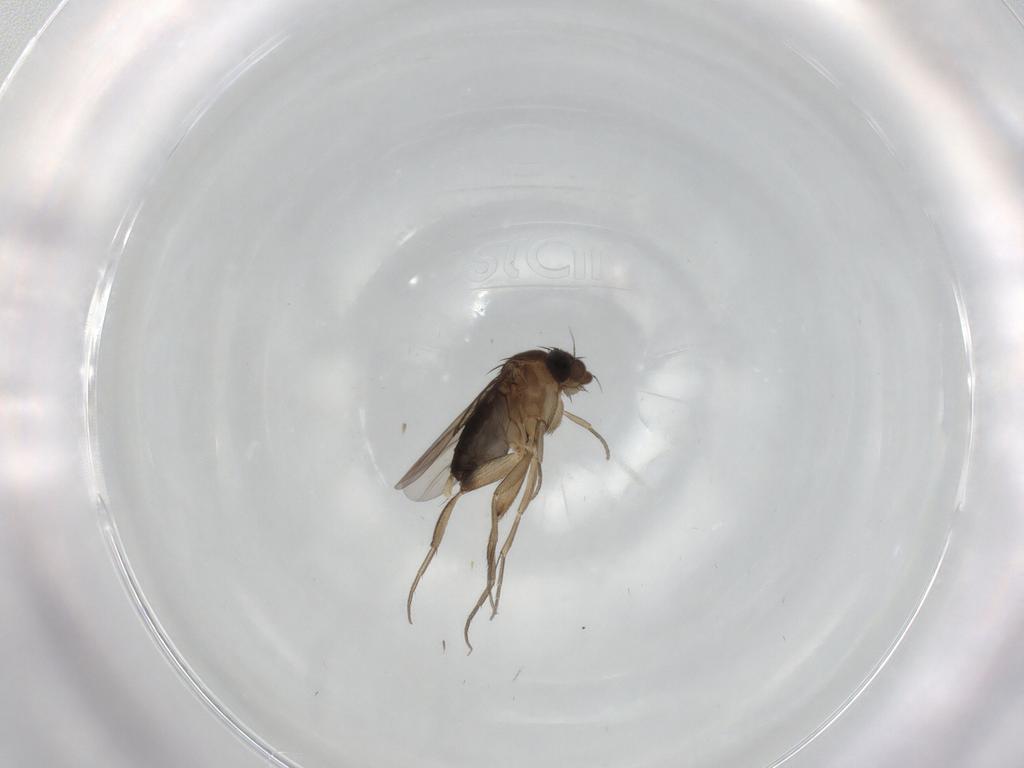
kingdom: Animalia
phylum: Arthropoda
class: Insecta
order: Diptera
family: Phoridae
